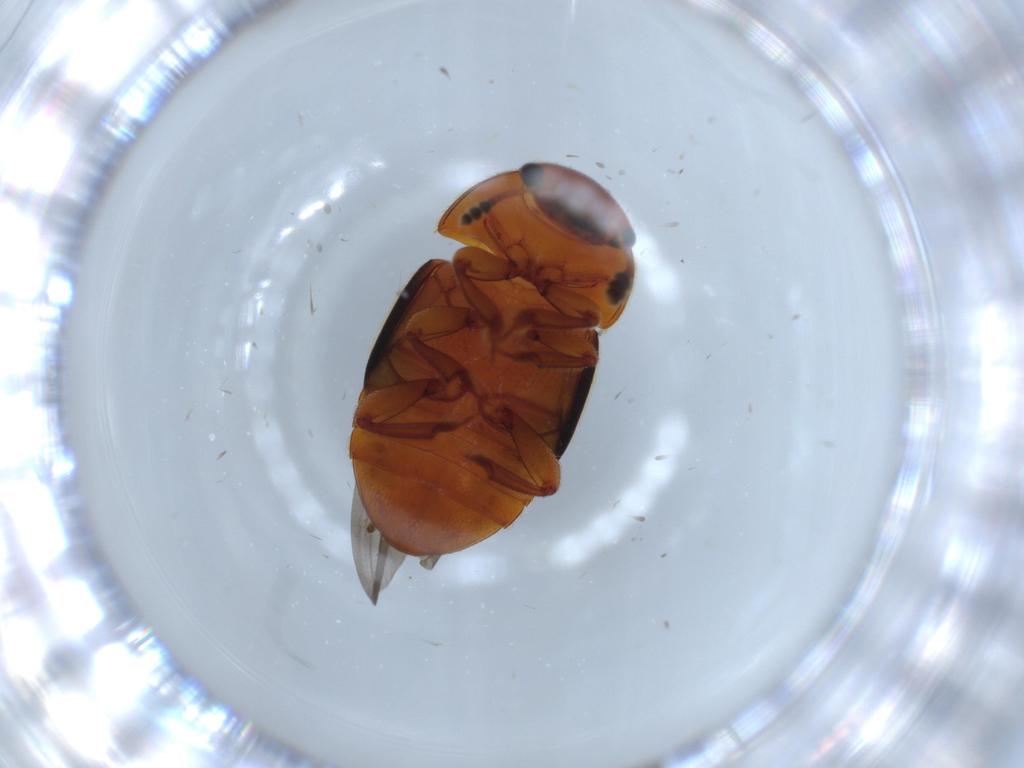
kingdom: Animalia
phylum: Arthropoda
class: Insecta
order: Coleoptera
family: Nitidulidae
